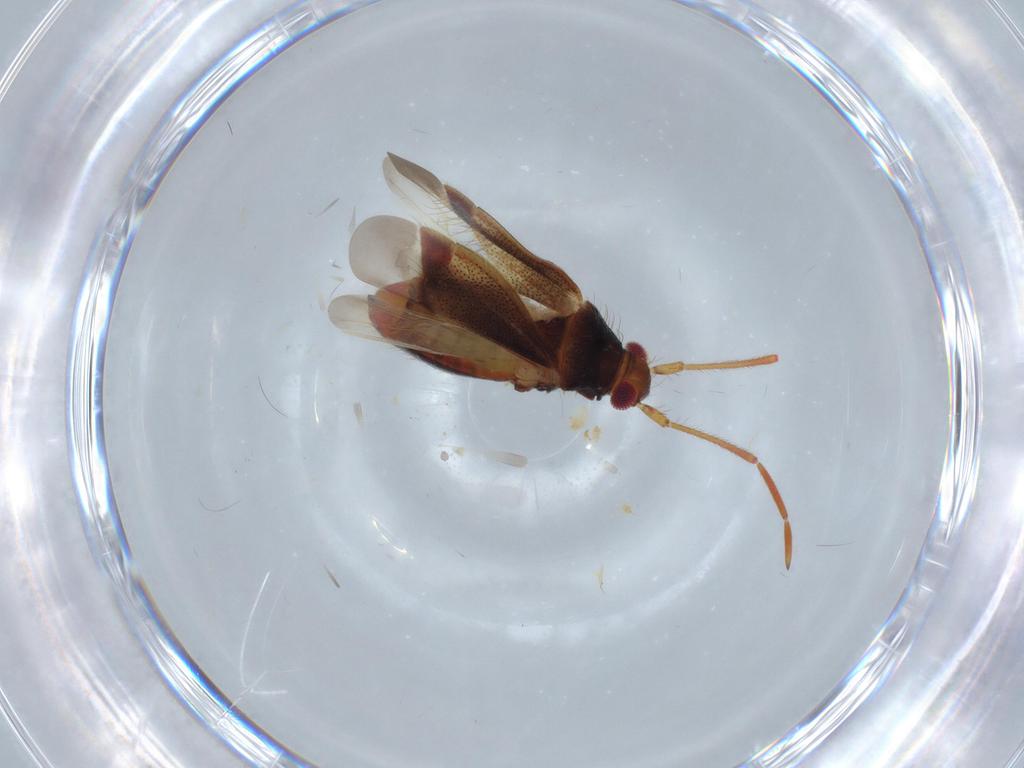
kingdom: Animalia
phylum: Arthropoda
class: Insecta
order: Hemiptera
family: Miridae
